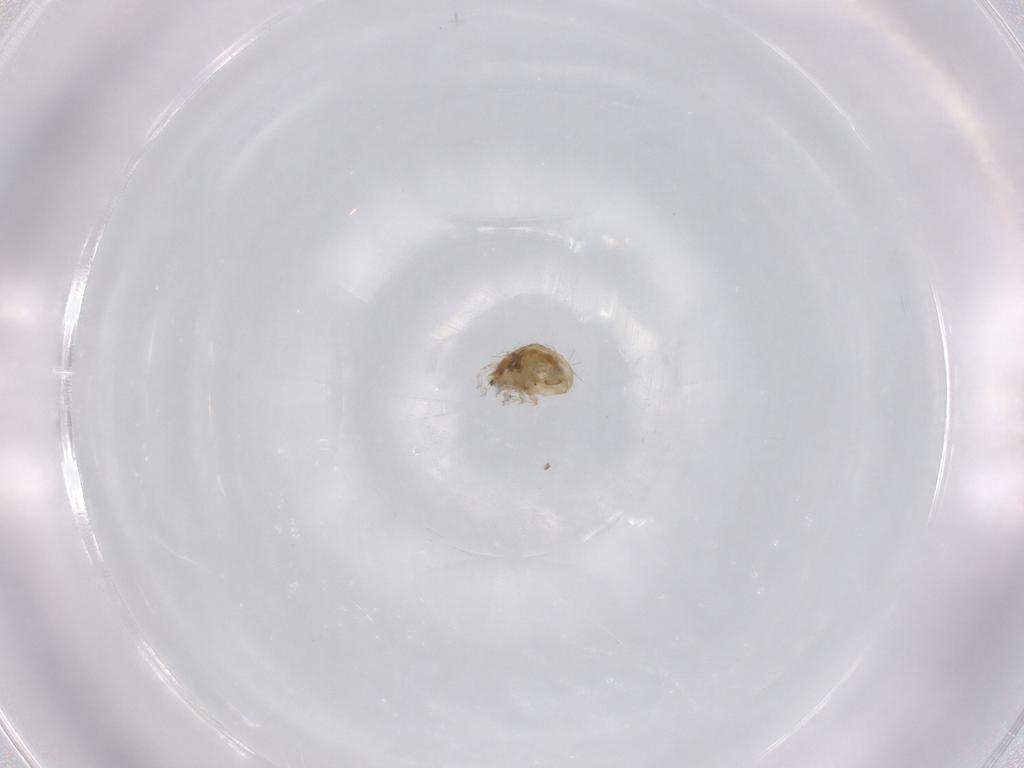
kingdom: Animalia
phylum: Arthropoda
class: Arachnida
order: Sarcoptiformes
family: Humerobatidae
